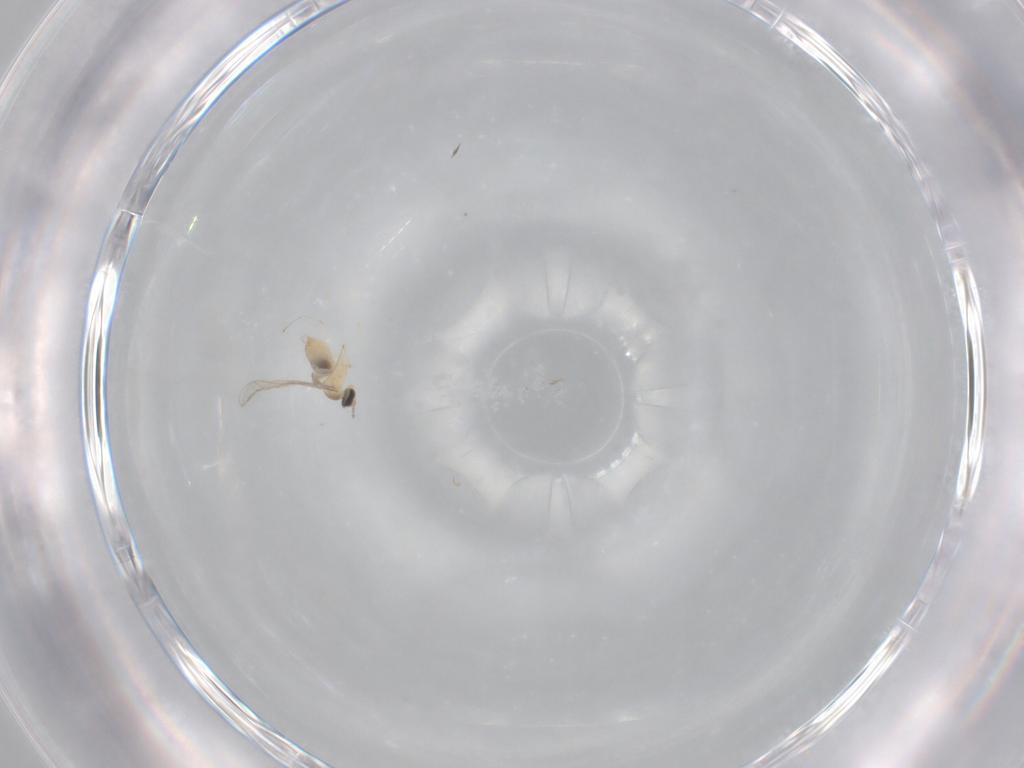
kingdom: Animalia
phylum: Arthropoda
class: Insecta
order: Diptera
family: Cecidomyiidae
